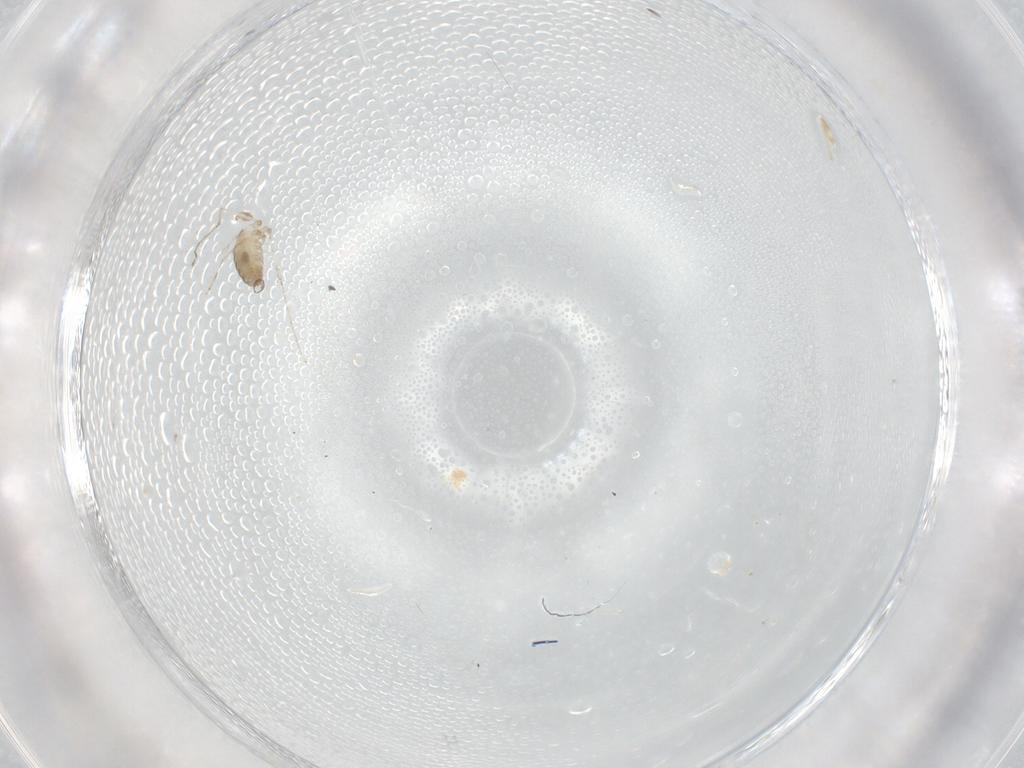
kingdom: Animalia
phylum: Arthropoda
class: Insecta
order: Diptera
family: Cecidomyiidae
